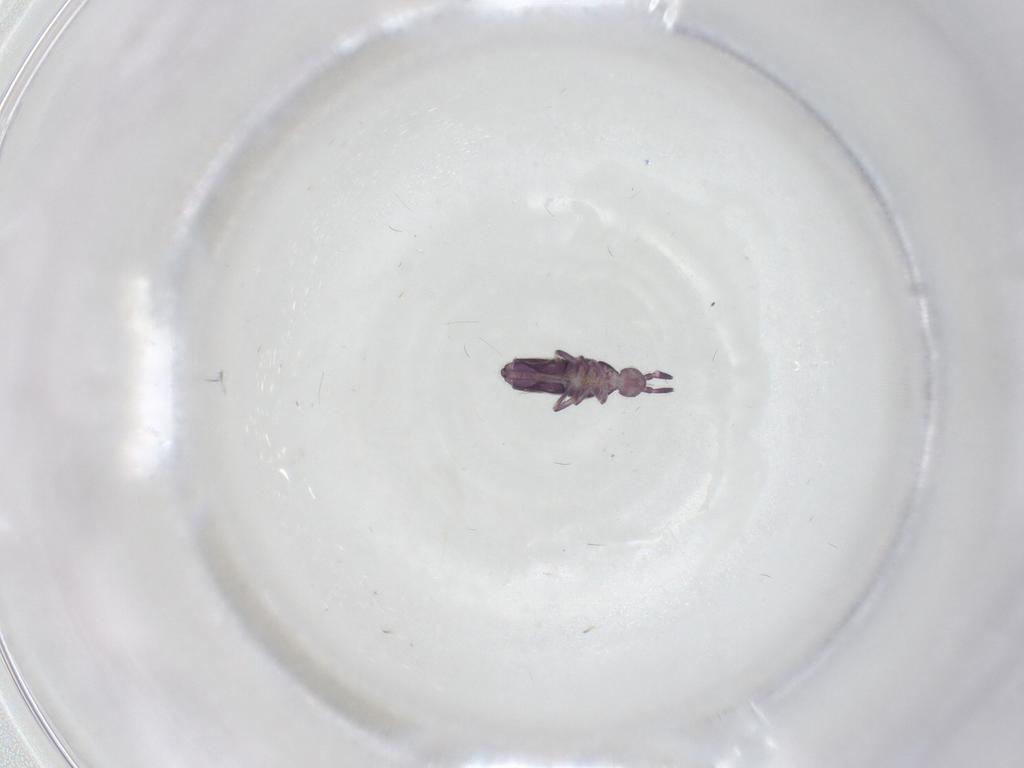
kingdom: Animalia
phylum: Arthropoda
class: Collembola
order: Entomobryomorpha
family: Entomobryidae
